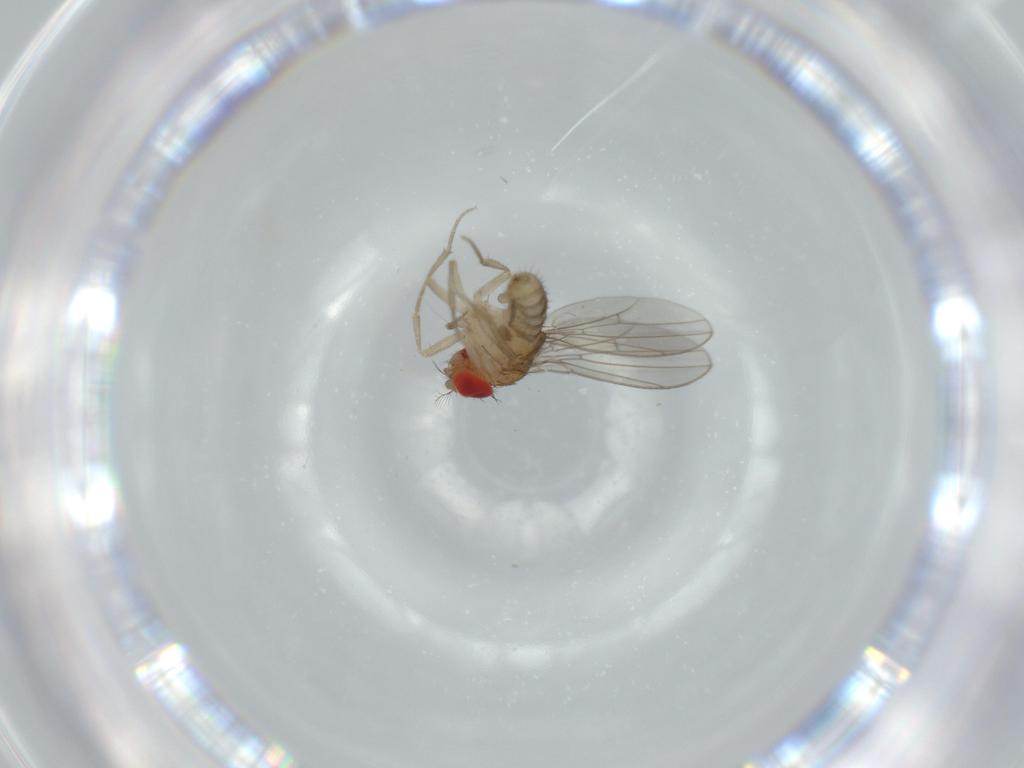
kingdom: Animalia
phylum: Arthropoda
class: Insecta
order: Diptera
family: Drosophilidae
